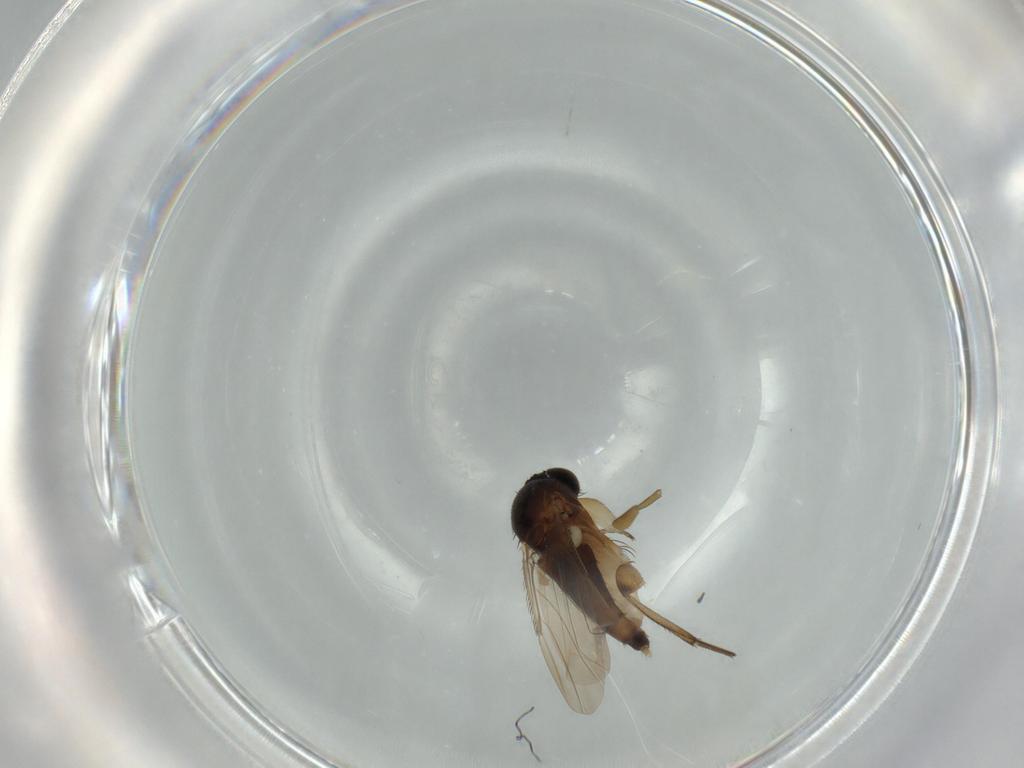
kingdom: Animalia
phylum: Arthropoda
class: Insecta
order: Diptera
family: Phoridae
